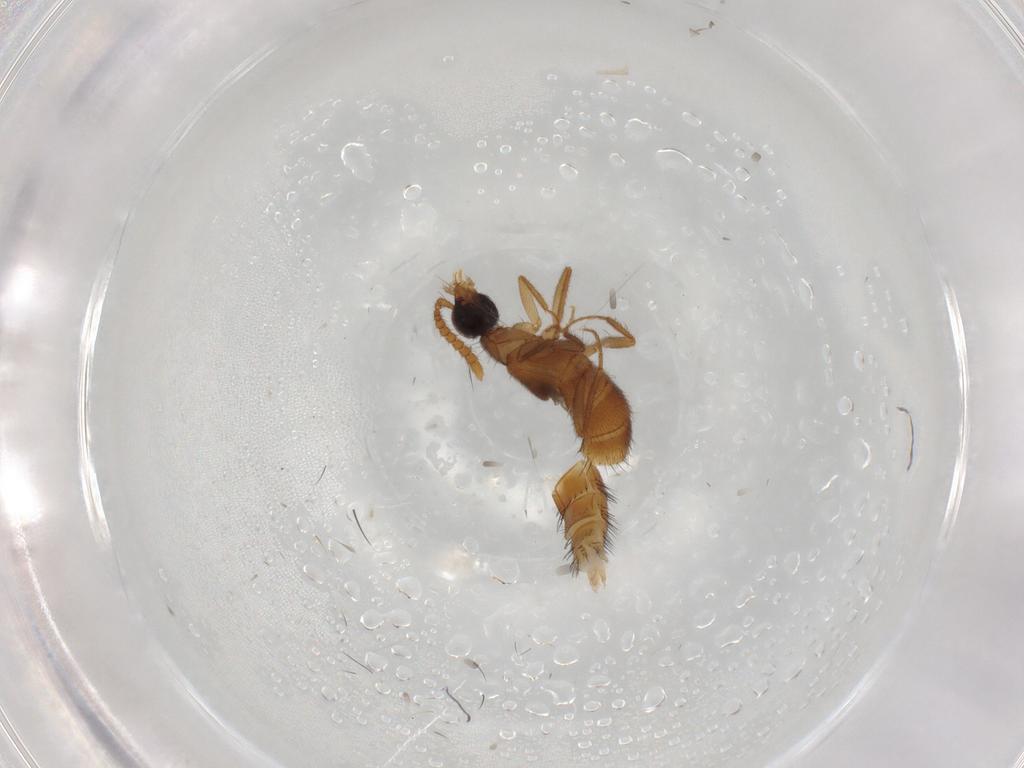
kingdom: Animalia
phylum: Arthropoda
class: Insecta
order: Coleoptera
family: Staphylinidae
